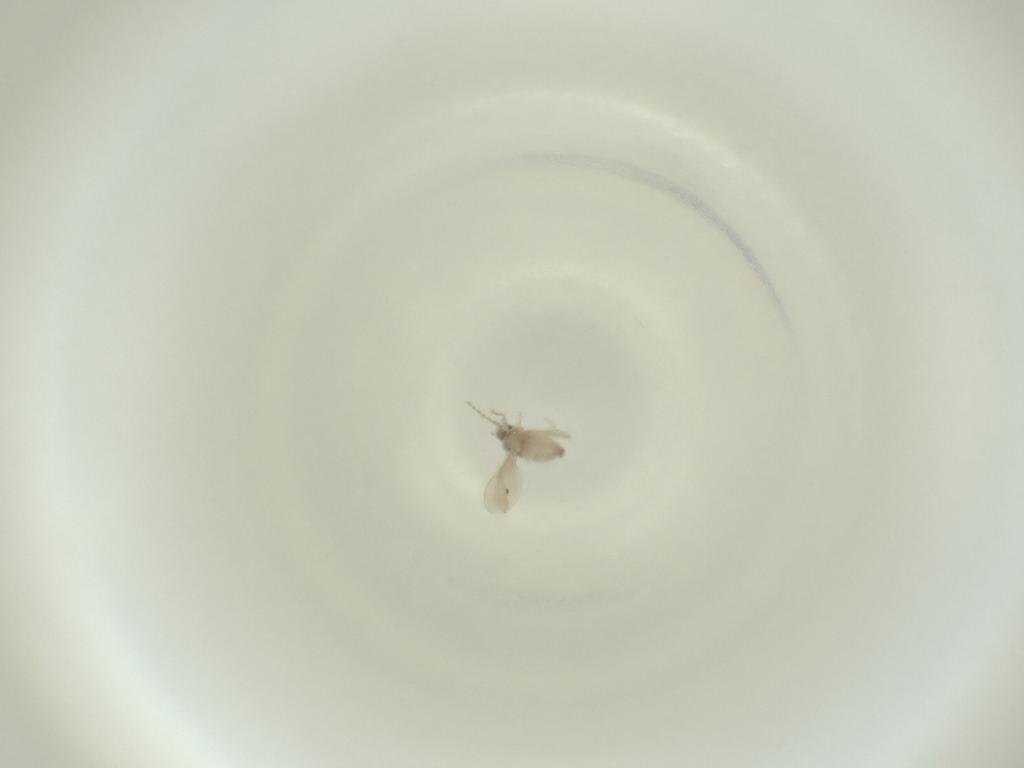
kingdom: Animalia
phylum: Arthropoda
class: Insecta
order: Diptera
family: Cecidomyiidae
